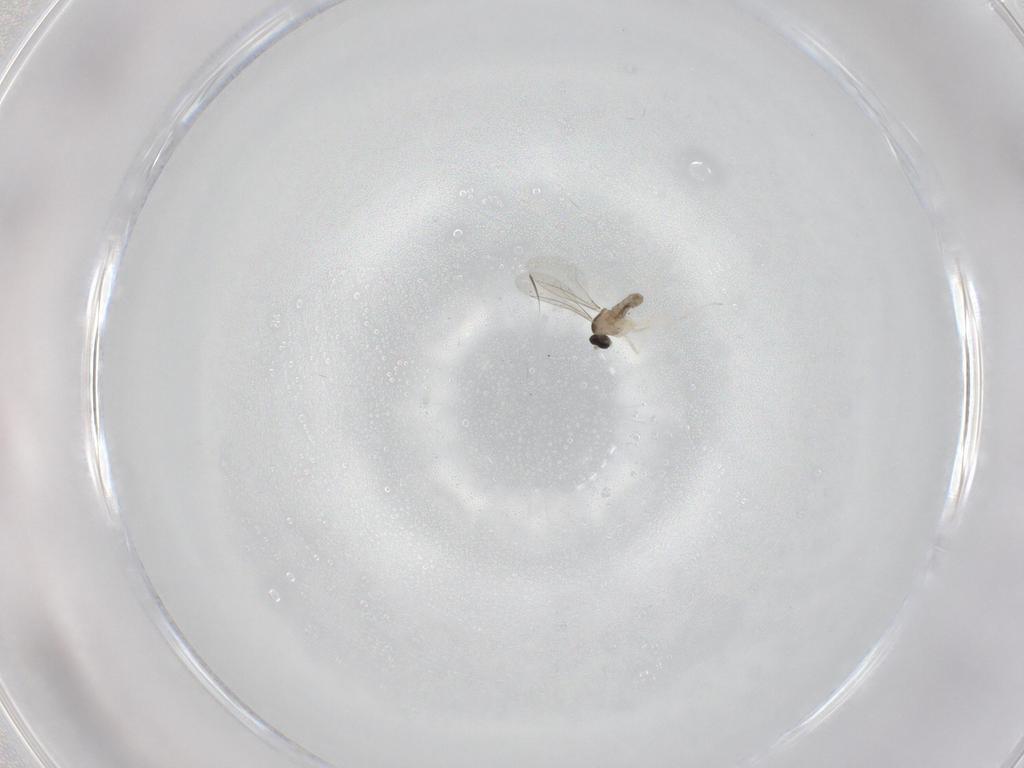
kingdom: Animalia
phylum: Arthropoda
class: Insecta
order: Diptera
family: Cecidomyiidae
